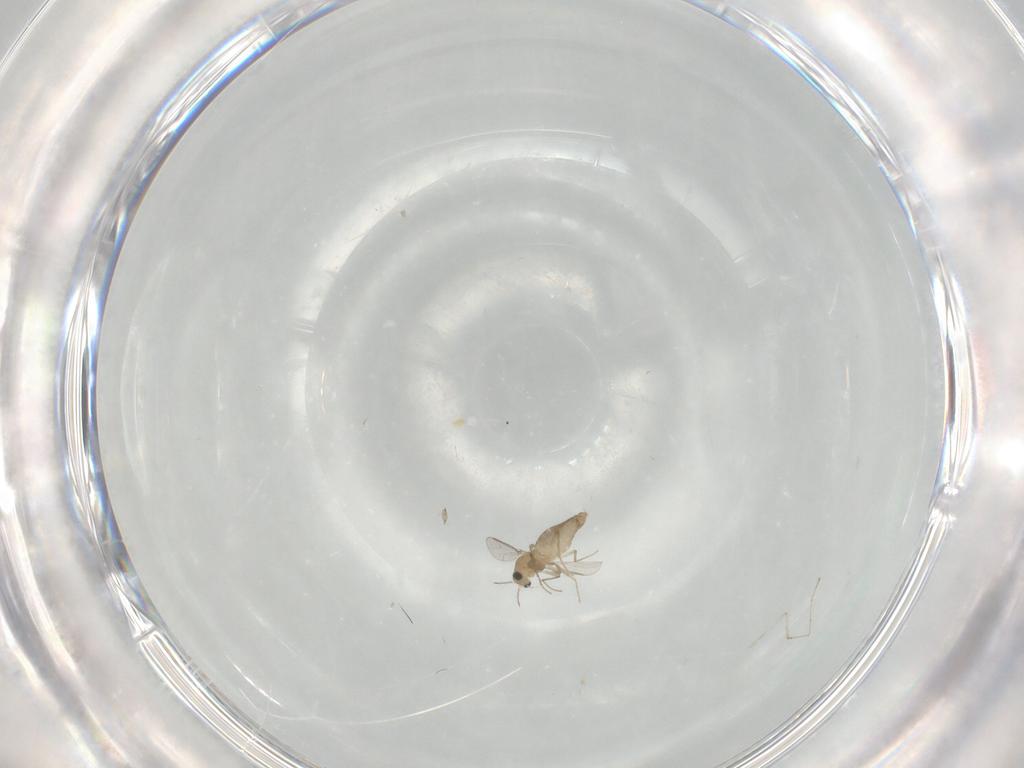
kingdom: Animalia
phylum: Arthropoda
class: Insecta
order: Diptera
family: Chironomidae
